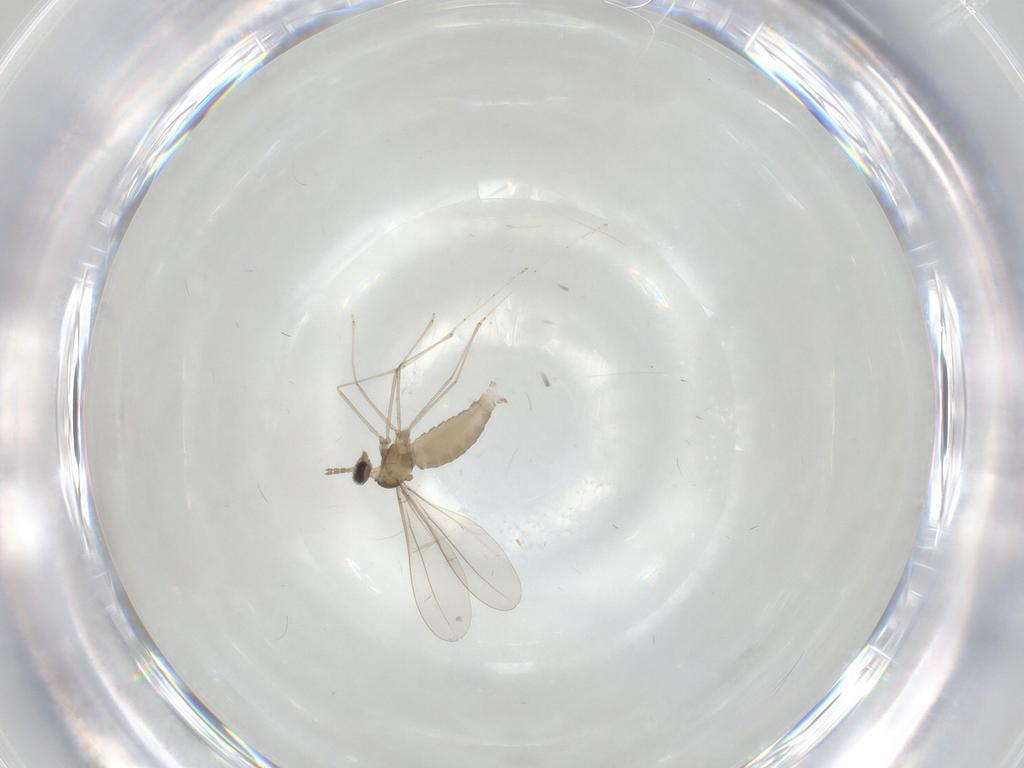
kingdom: Animalia
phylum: Arthropoda
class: Insecta
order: Diptera
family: Cecidomyiidae
